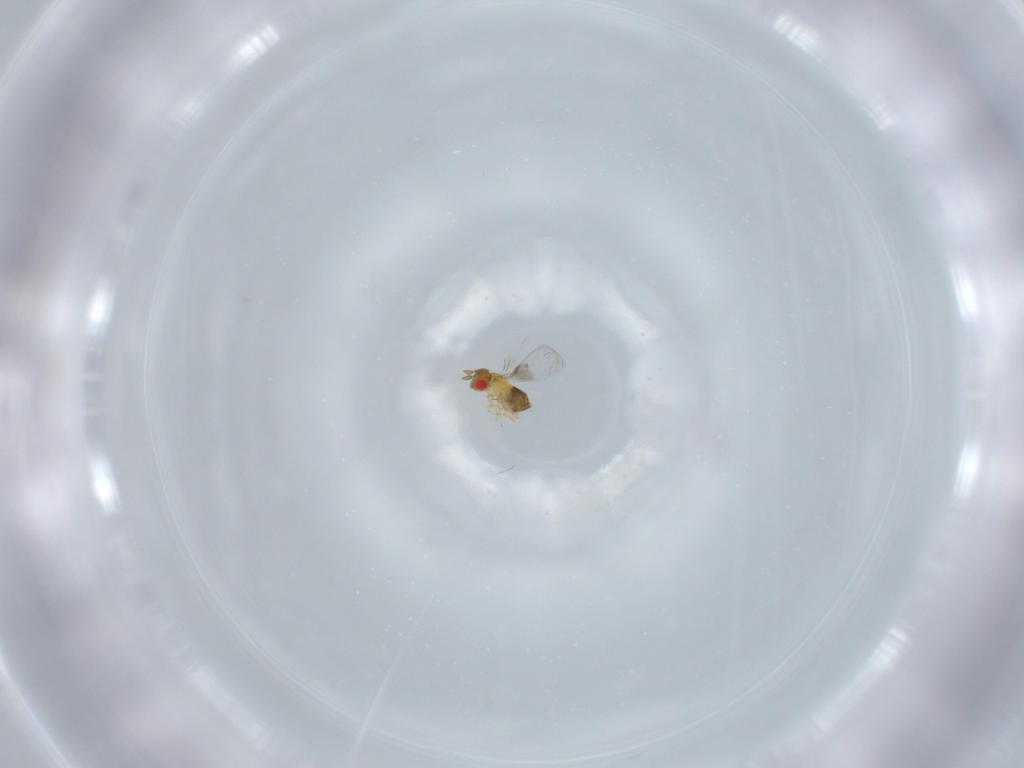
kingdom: Animalia
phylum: Arthropoda
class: Insecta
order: Hymenoptera
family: Trichogrammatidae
